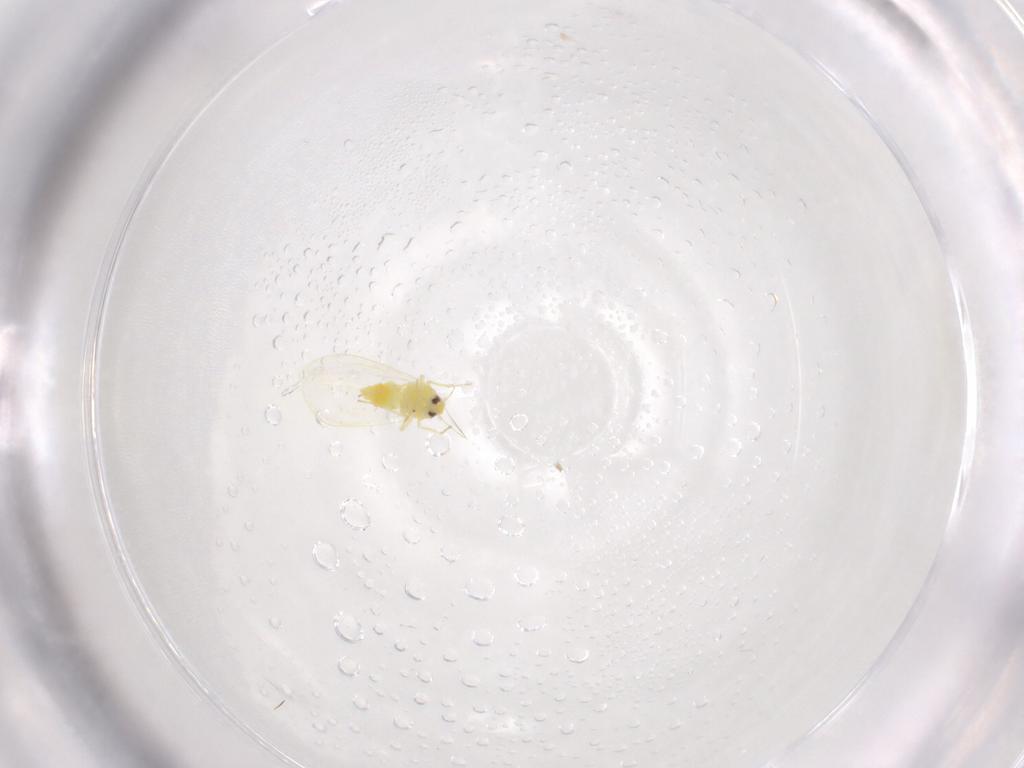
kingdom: Animalia
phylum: Arthropoda
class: Insecta
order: Hemiptera
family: Aleyrodidae
